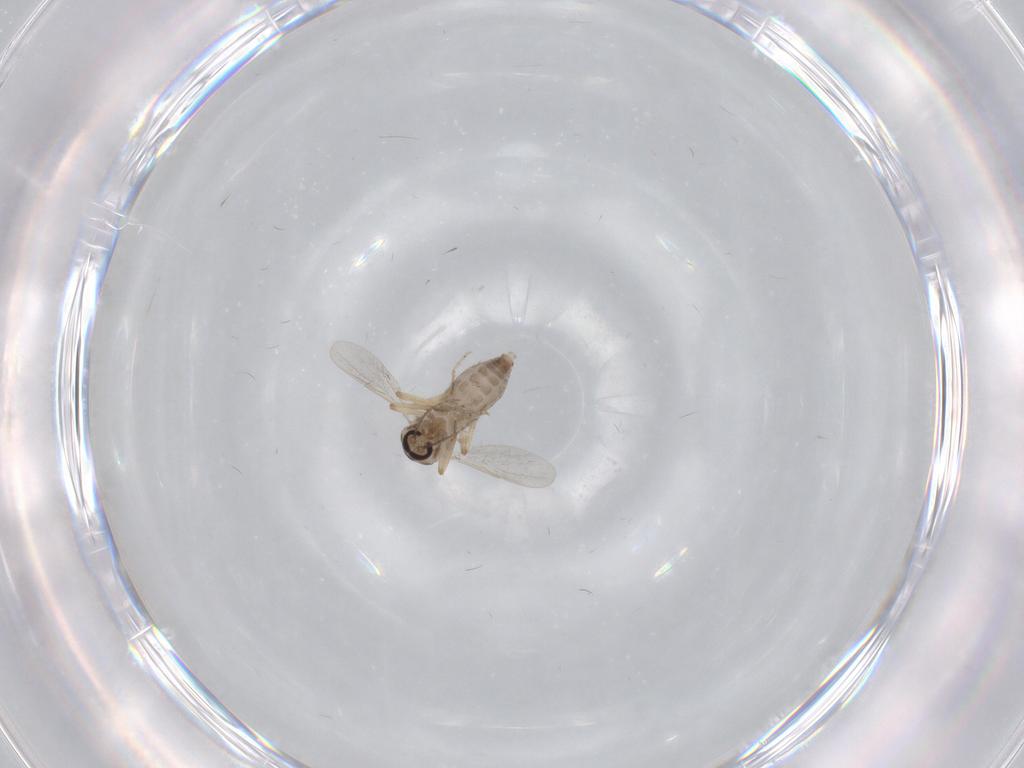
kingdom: Animalia
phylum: Arthropoda
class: Insecta
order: Diptera
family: Ceratopogonidae
